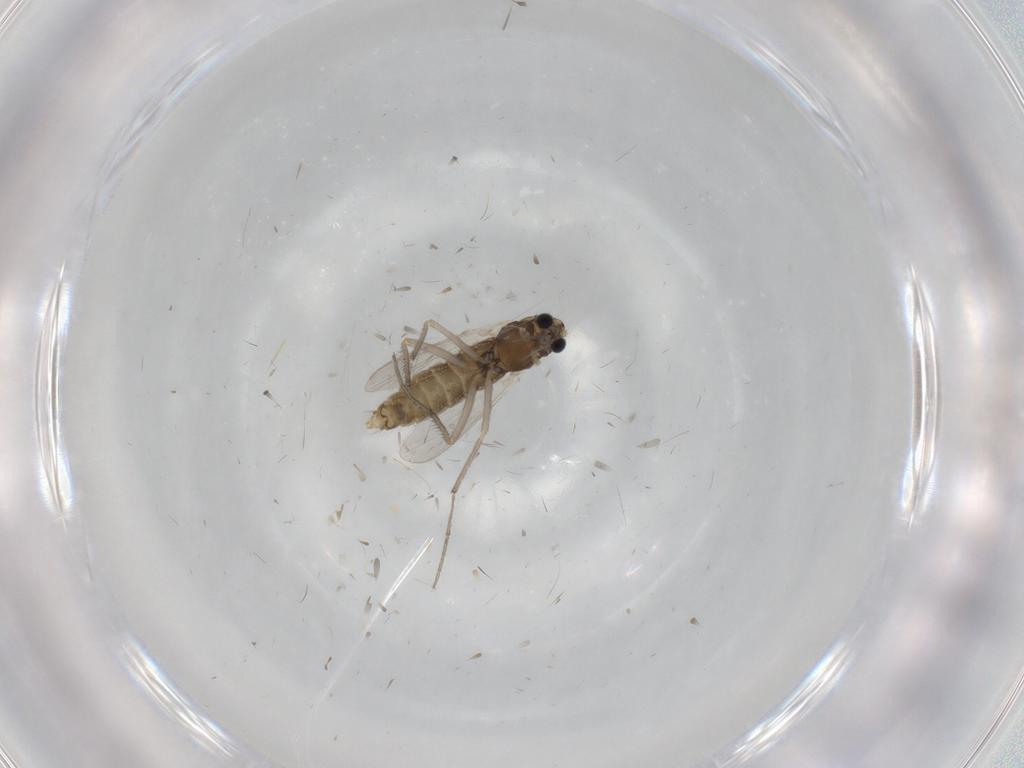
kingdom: Animalia
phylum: Arthropoda
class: Insecta
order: Diptera
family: Chironomidae
